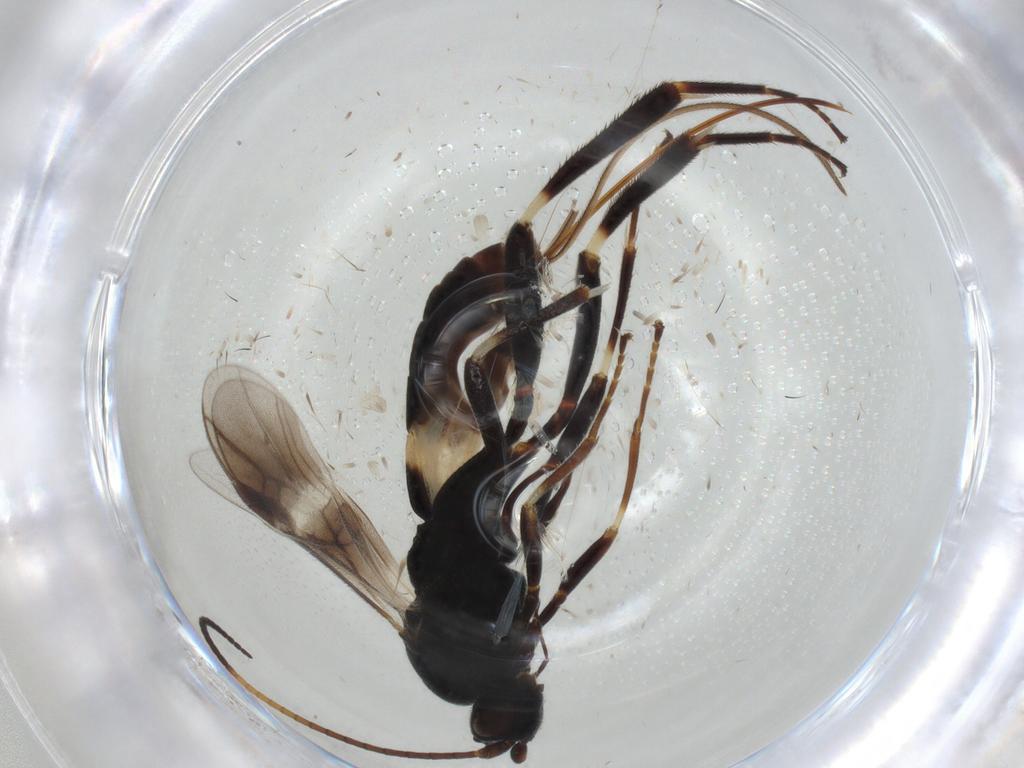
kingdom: Animalia
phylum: Arthropoda
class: Insecta
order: Hymenoptera
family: Braconidae
